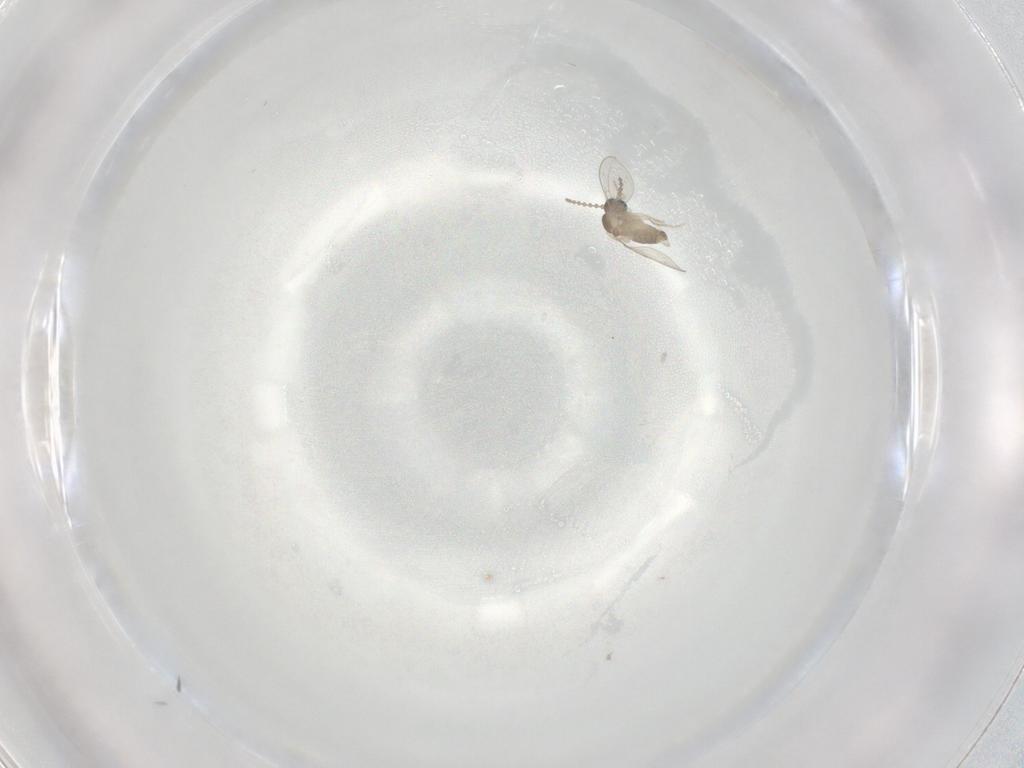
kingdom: Animalia
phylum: Arthropoda
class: Insecta
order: Diptera
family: Cecidomyiidae
